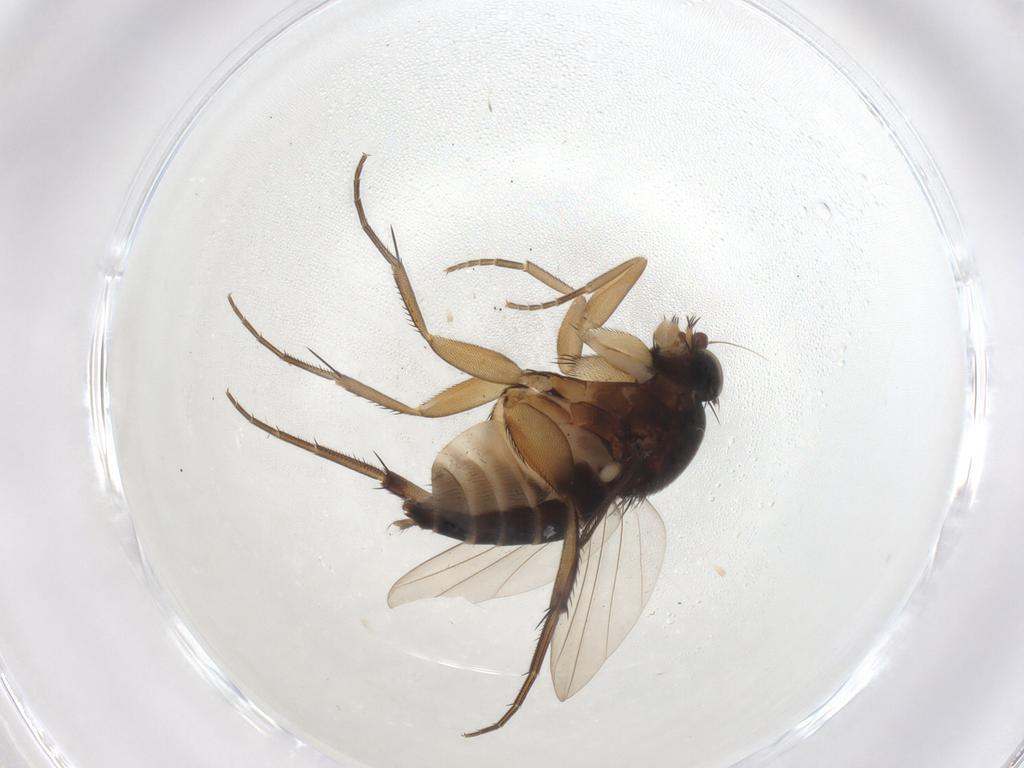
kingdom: Animalia
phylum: Arthropoda
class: Insecta
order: Diptera
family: Phoridae
